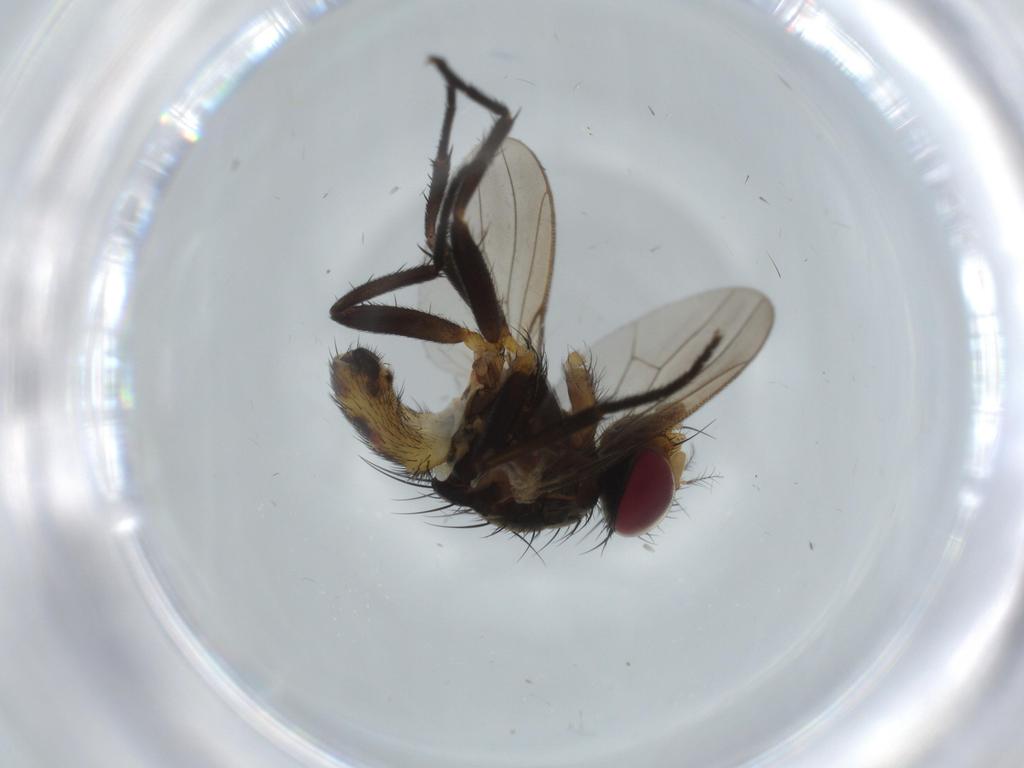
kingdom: Animalia
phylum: Arthropoda
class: Insecta
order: Diptera
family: Anthomyiidae
